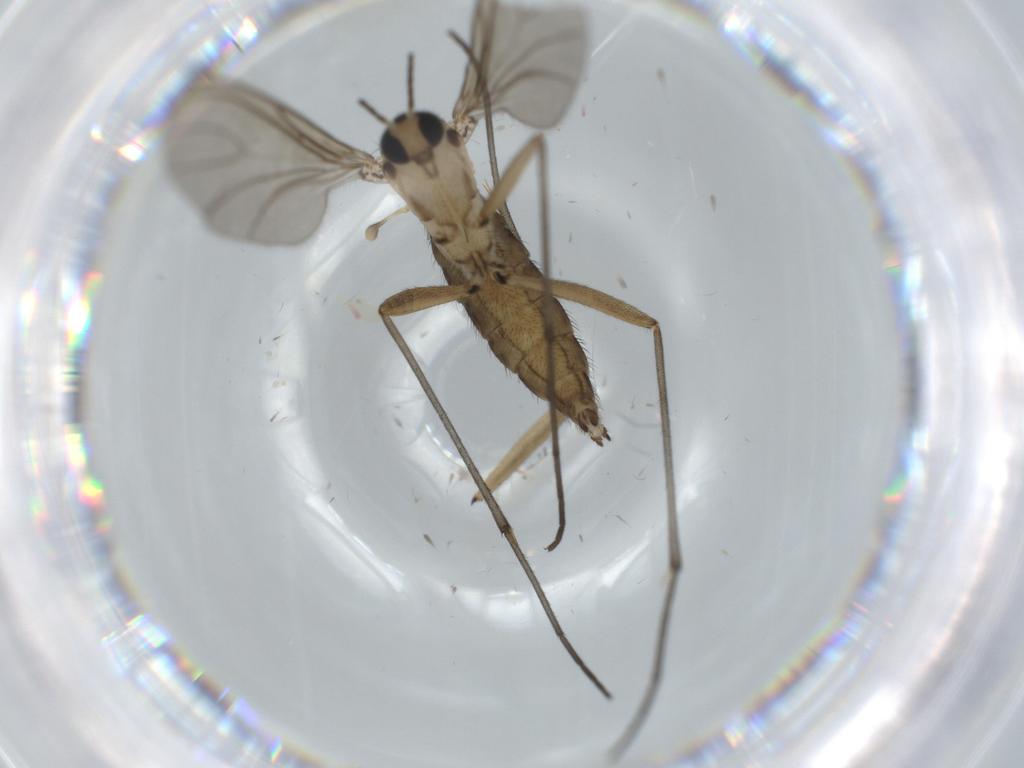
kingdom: Animalia
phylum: Arthropoda
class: Insecta
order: Diptera
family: Sciaridae
